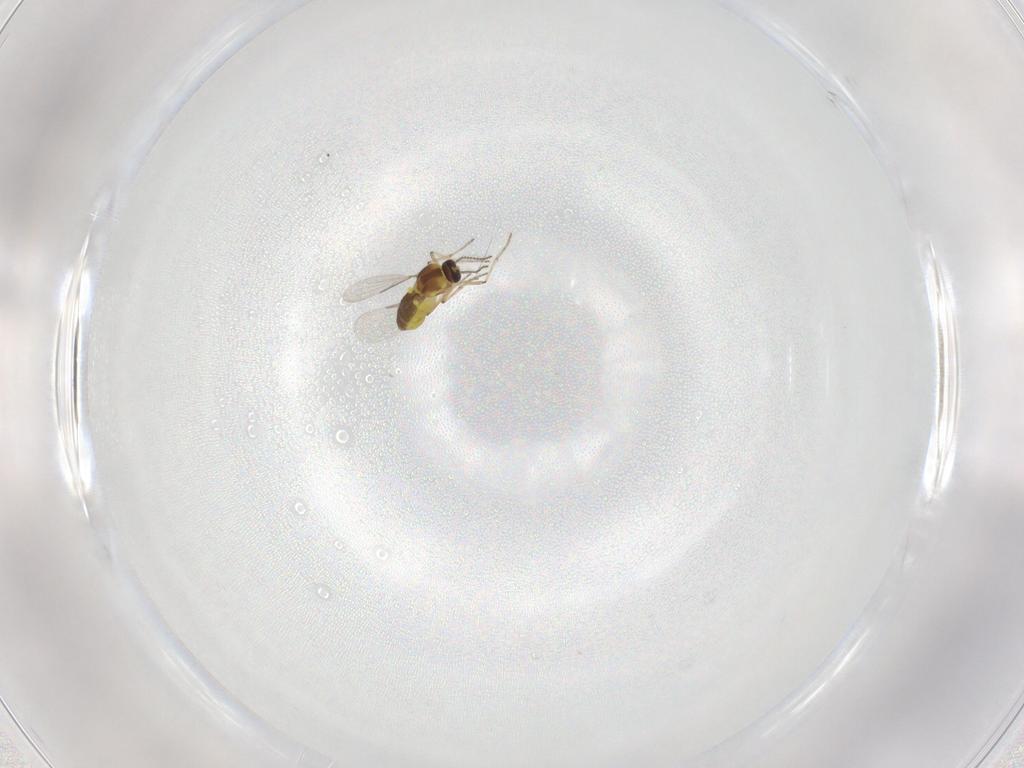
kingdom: Animalia
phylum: Arthropoda
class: Insecta
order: Diptera
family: Ceratopogonidae
